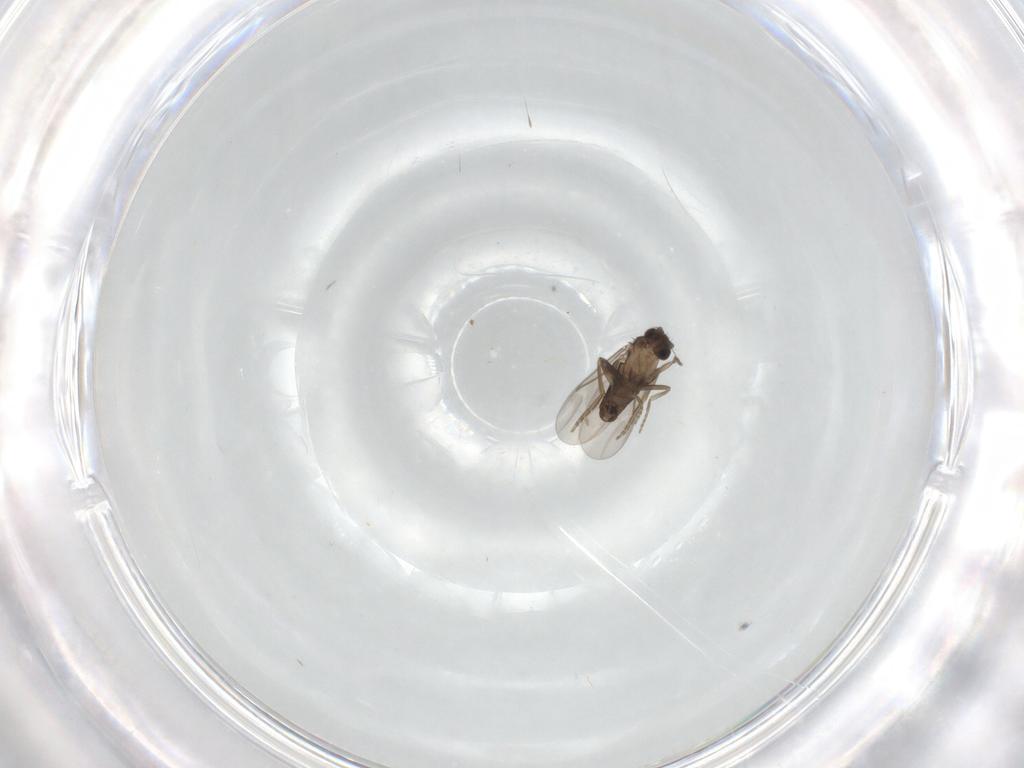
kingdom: Animalia
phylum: Arthropoda
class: Insecta
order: Diptera
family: Phoridae
